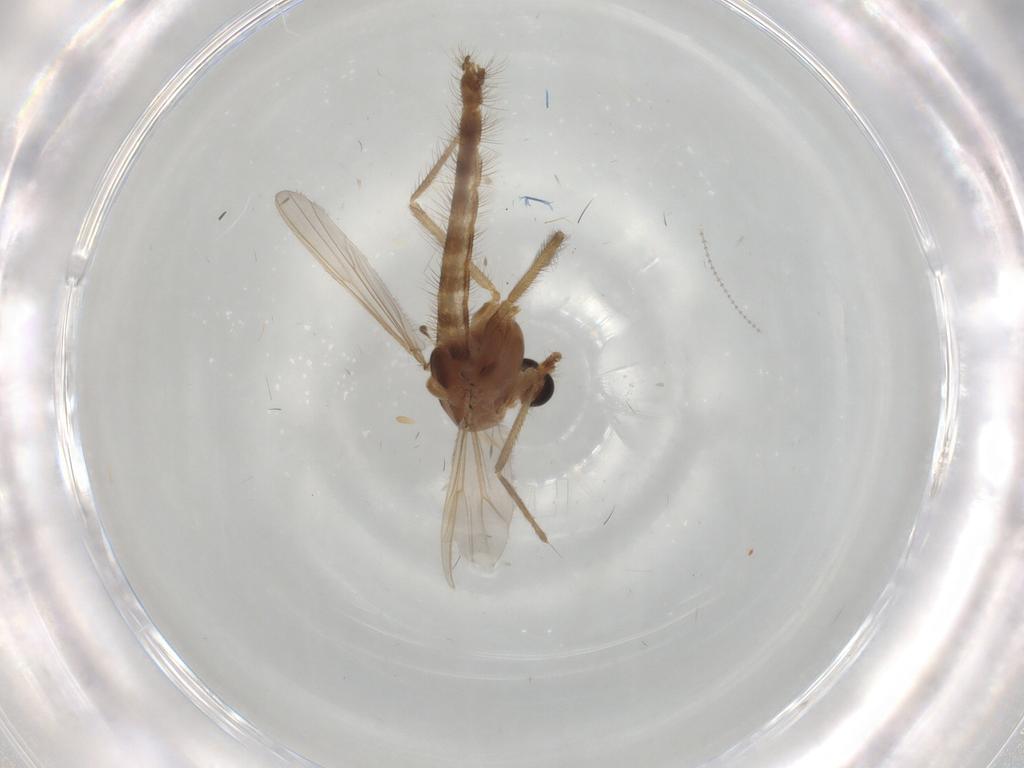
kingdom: Animalia
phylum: Arthropoda
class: Insecta
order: Diptera
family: Chironomidae
